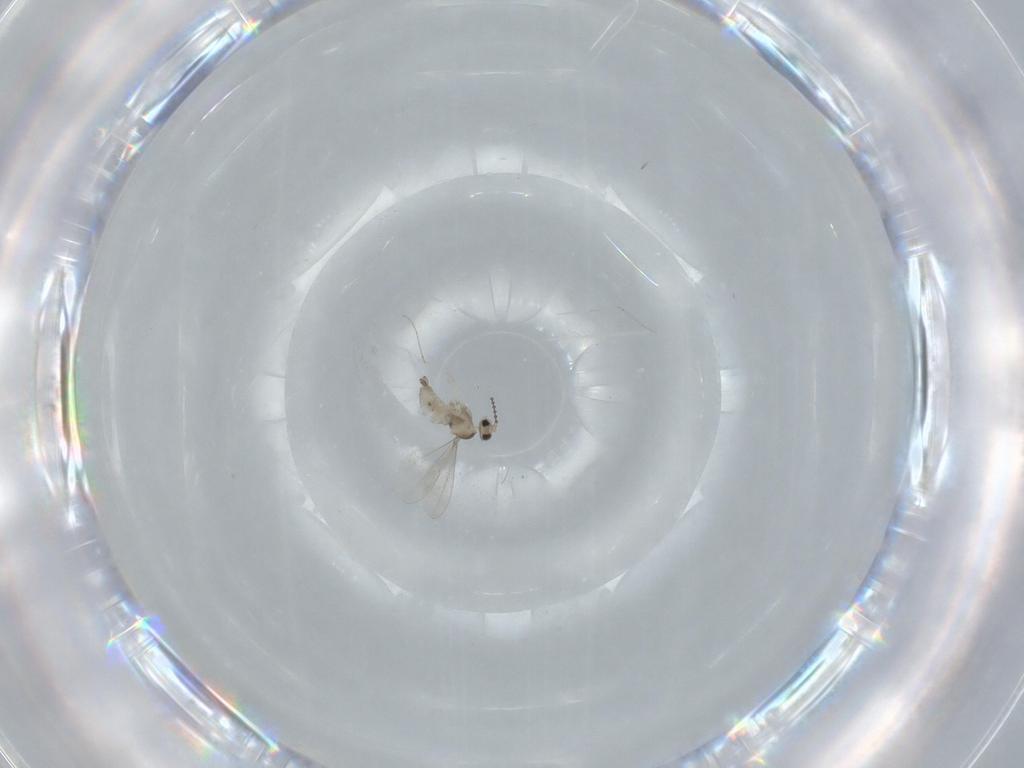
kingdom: Animalia
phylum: Arthropoda
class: Insecta
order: Diptera
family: Cecidomyiidae
